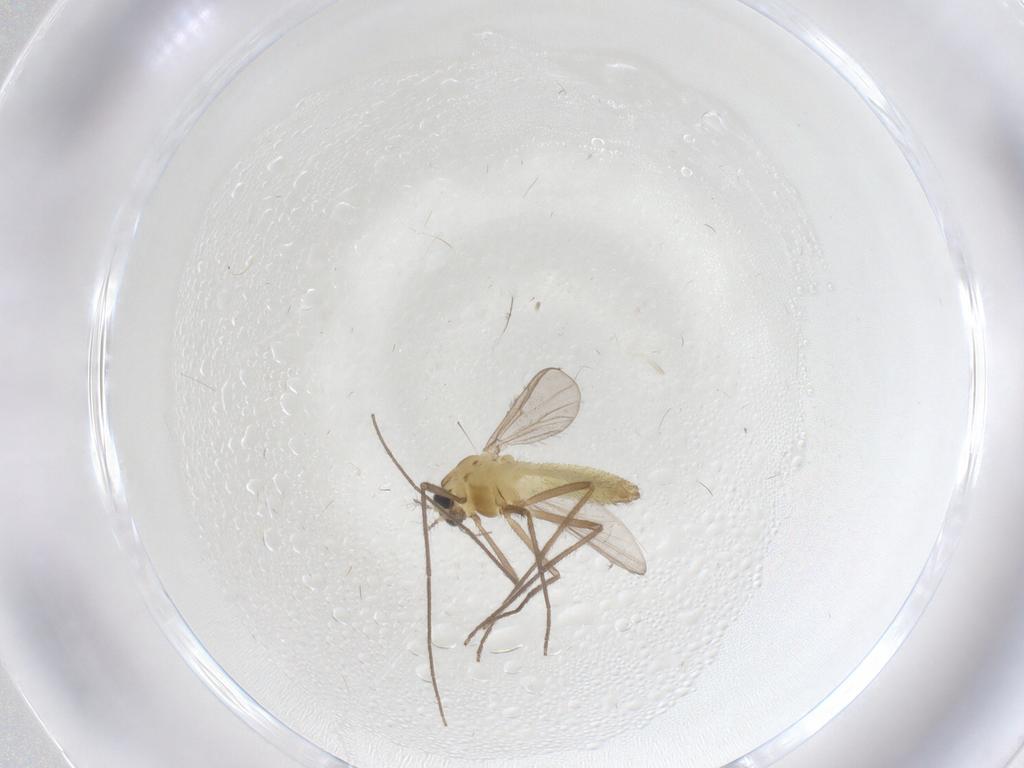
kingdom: Animalia
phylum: Arthropoda
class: Insecta
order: Diptera
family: Chironomidae
